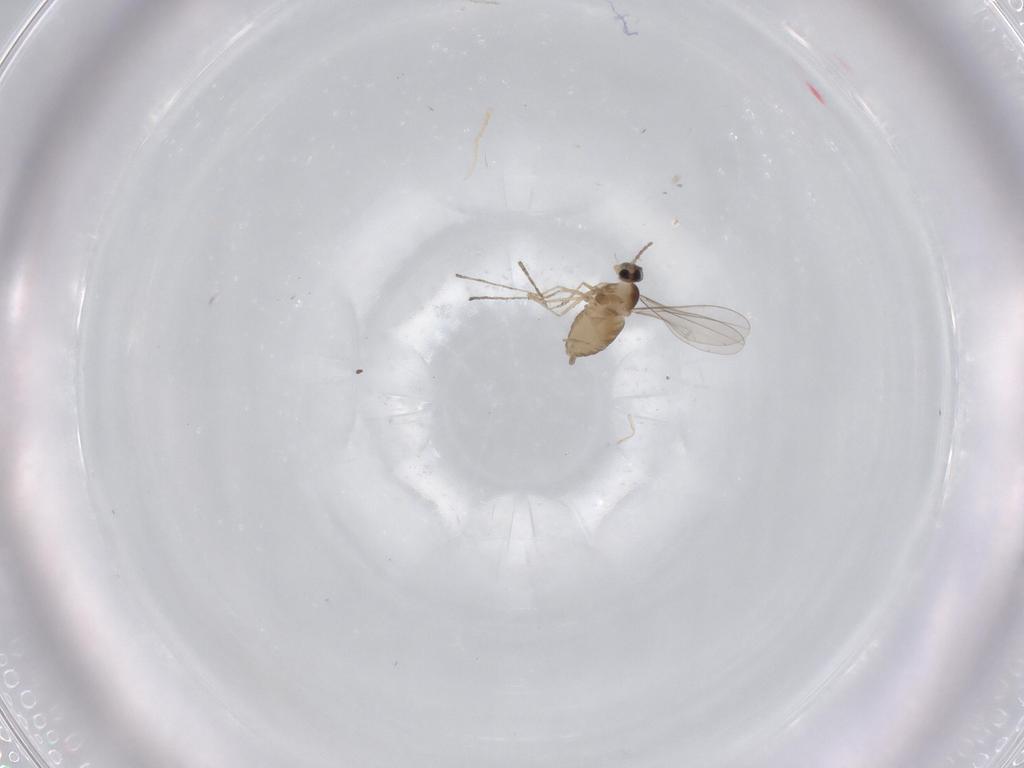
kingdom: Animalia
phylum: Arthropoda
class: Insecta
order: Diptera
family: Cecidomyiidae
